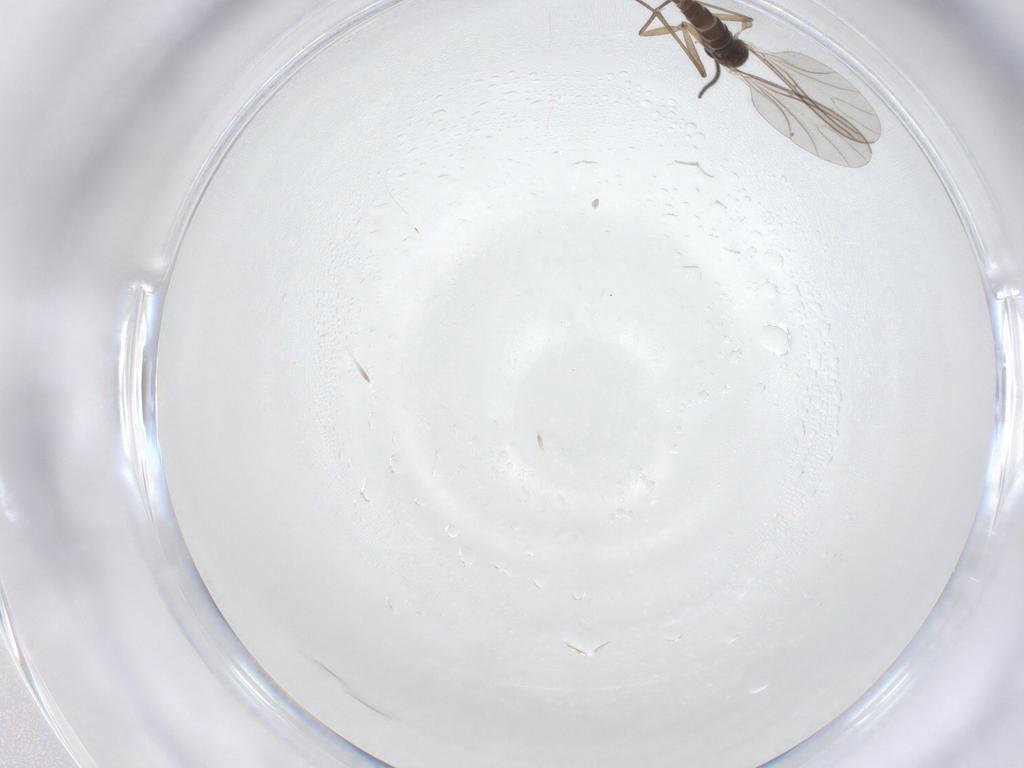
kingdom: Animalia
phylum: Arthropoda
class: Insecta
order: Diptera
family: Sciaridae
